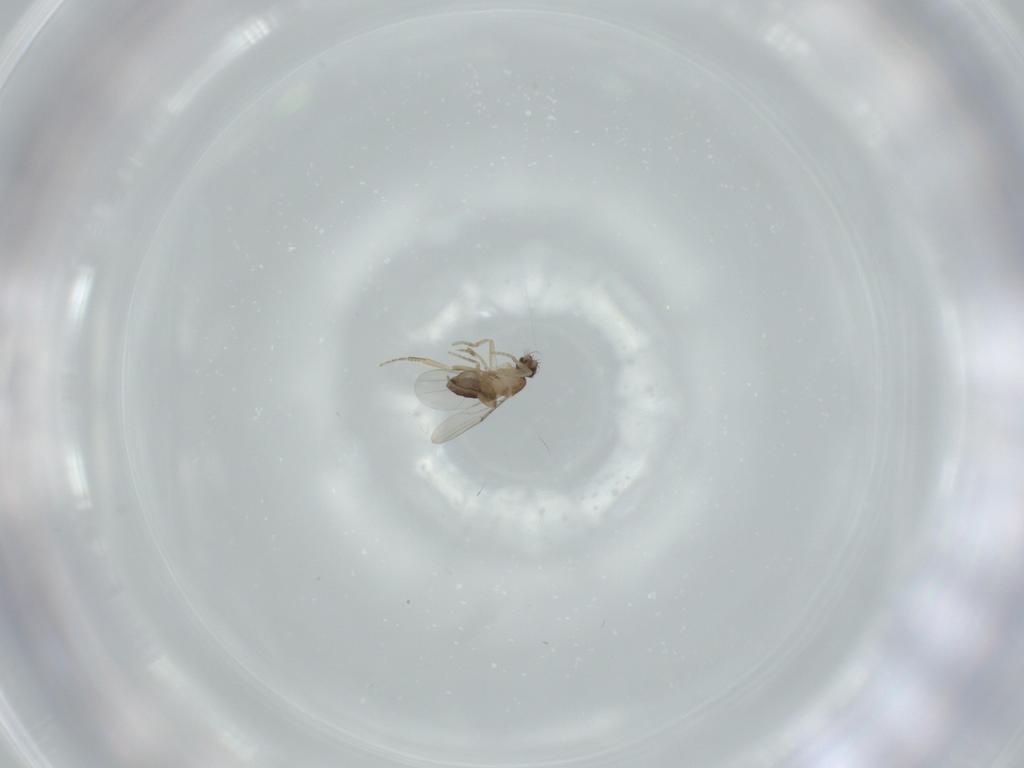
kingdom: Animalia
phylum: Arthropoda
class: Insecta
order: Diptera
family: Phoridae
